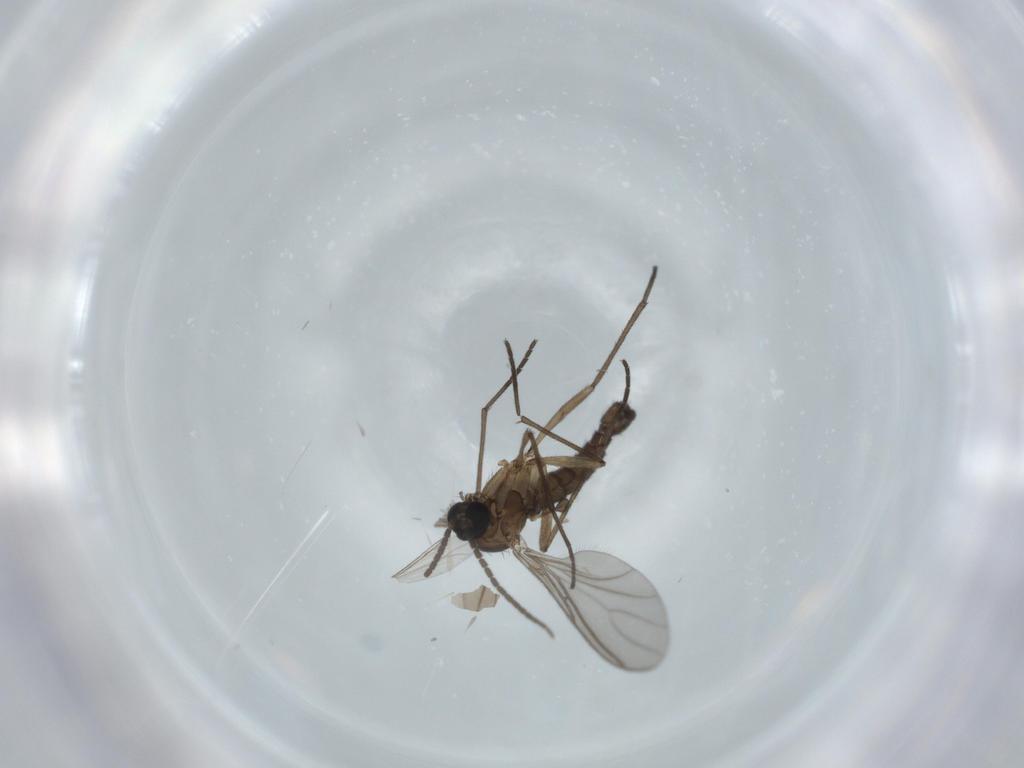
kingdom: Animalia
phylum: Arthropoda
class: Insecta
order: Diptera
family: Sciaridae
